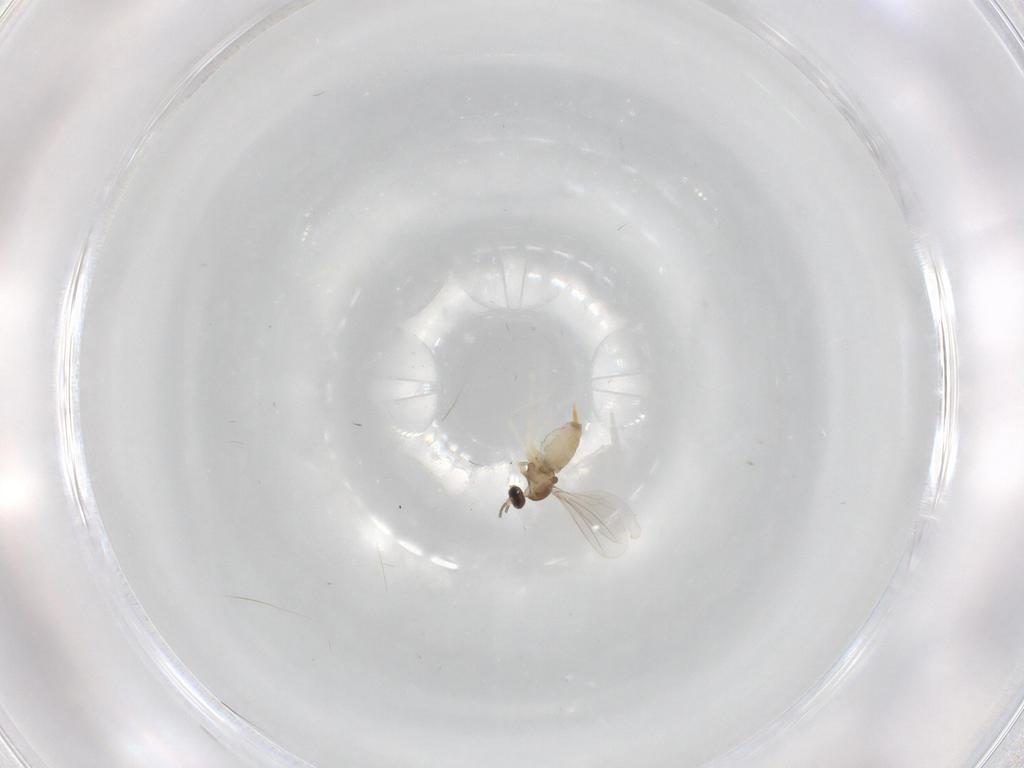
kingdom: Animalia
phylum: Arthropoda
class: Insecta
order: Diptera
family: Cecidomyiidae
